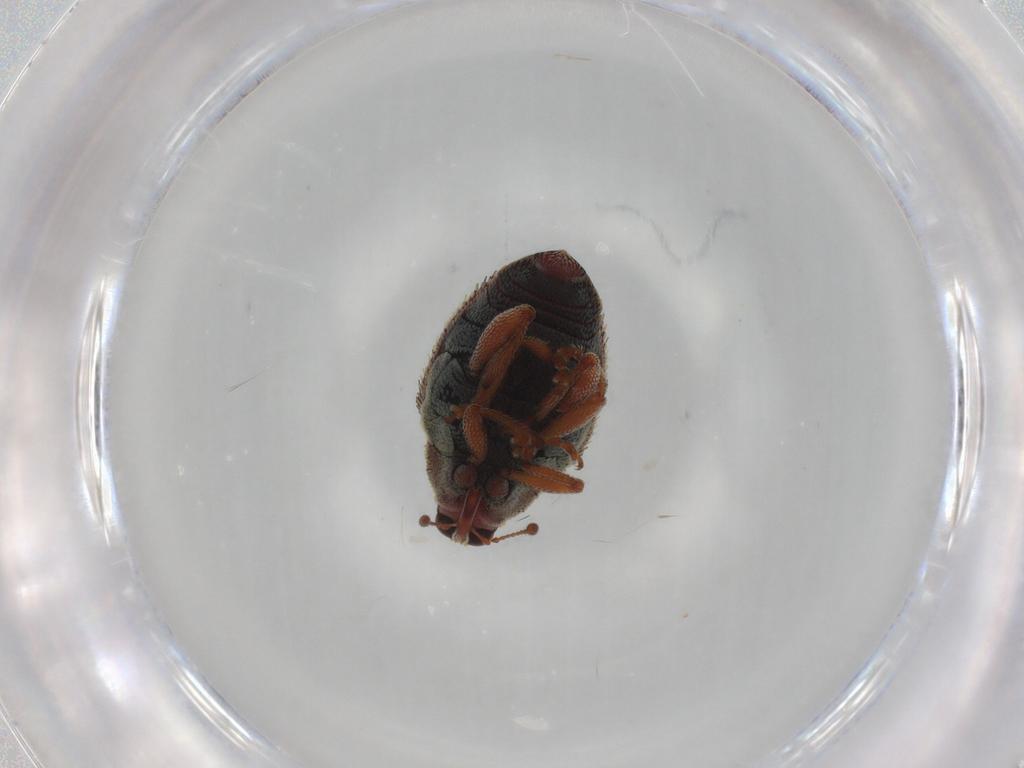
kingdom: Animalia
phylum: Arthropoda
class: Insecta
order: Coleoptera
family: Curculionidae
